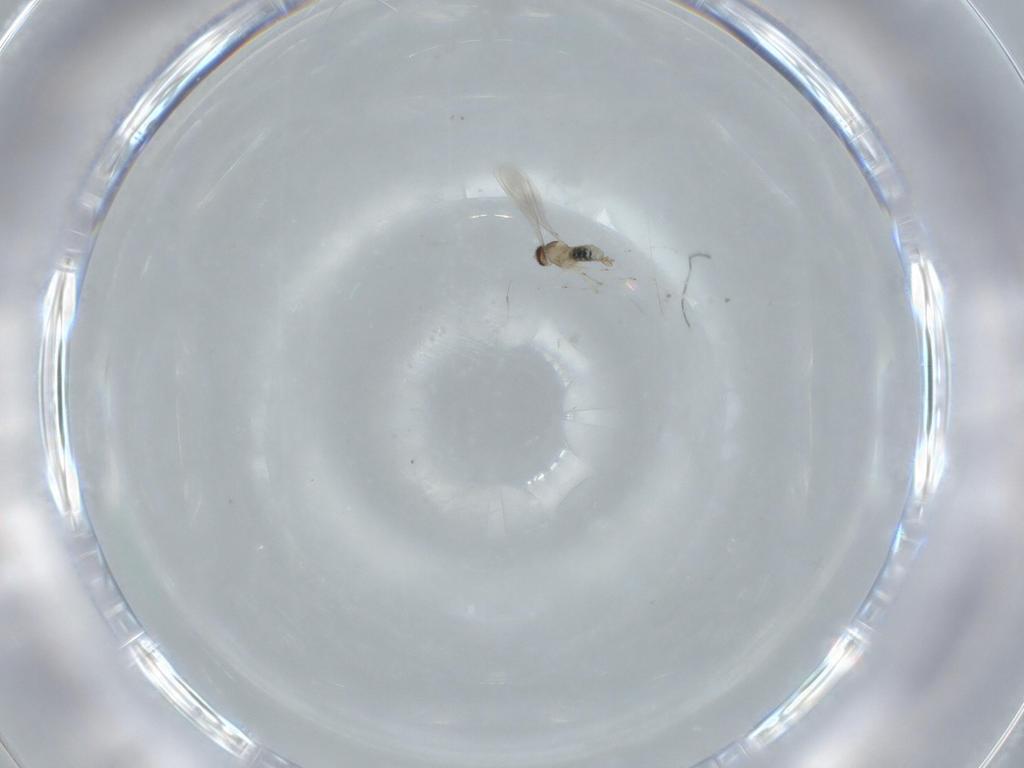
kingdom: Animalia
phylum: Arthropoda
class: Insecta
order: Diptera
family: Cecidomyiidae
